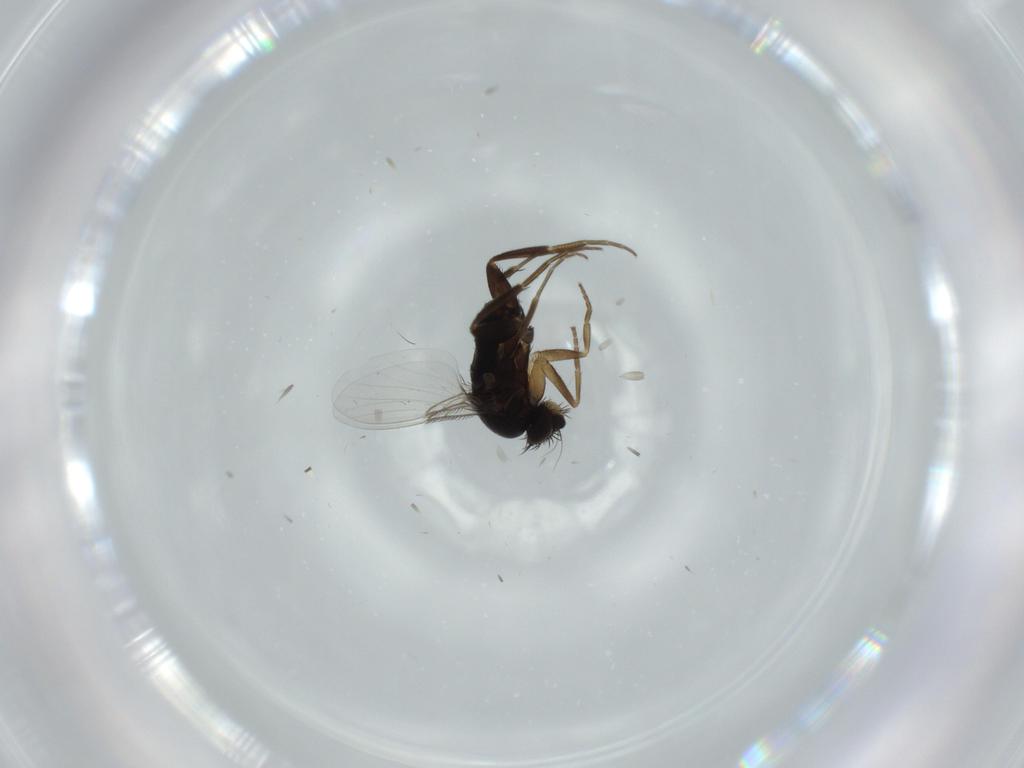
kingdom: Animalia
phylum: Arthropoda
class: Insecta
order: Diptera
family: Phoridae
